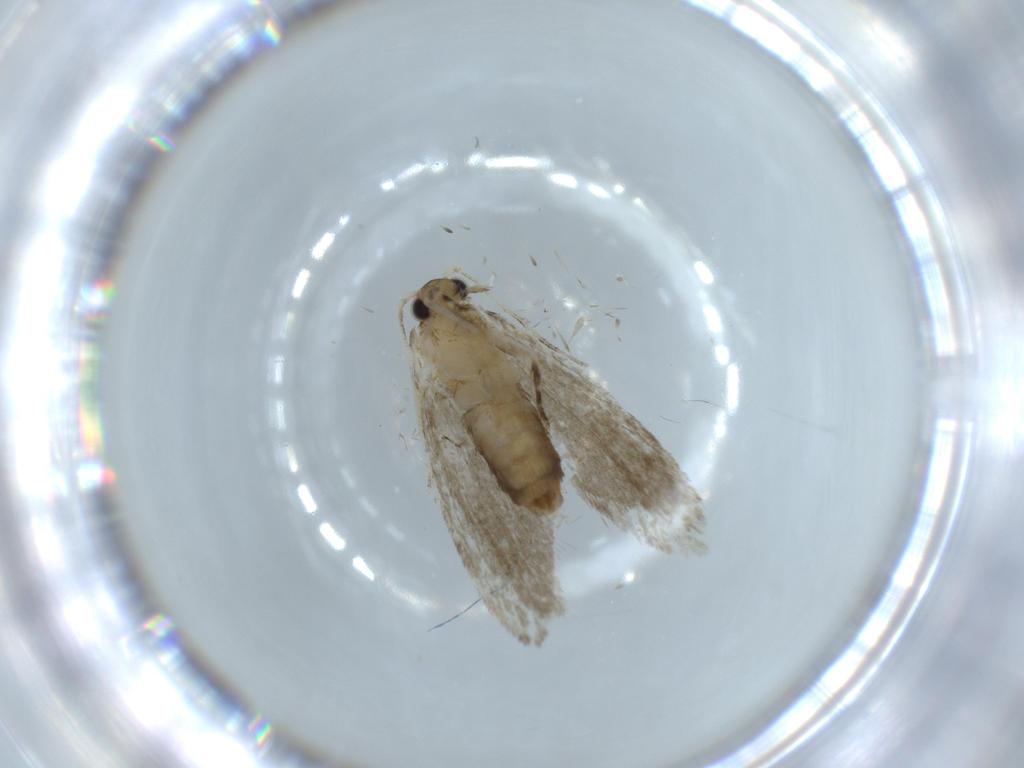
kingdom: Animalia
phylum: Arthropoda
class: Insecta
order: Lepidoptera
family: Tineidae
